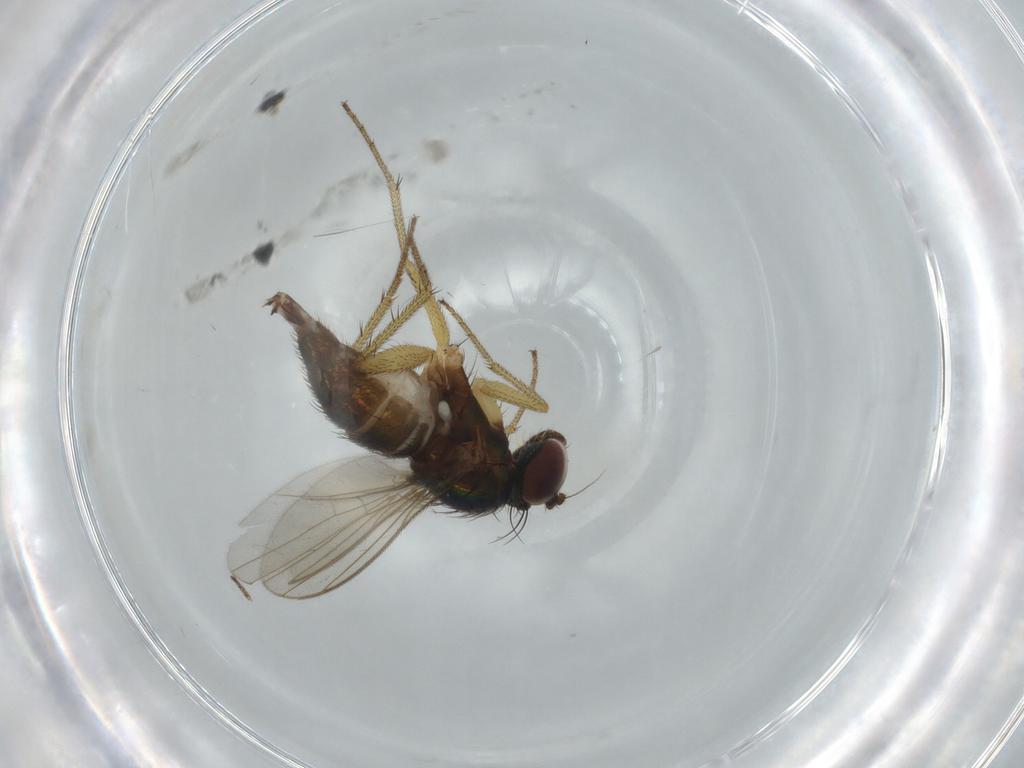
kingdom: Animalia
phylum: Arthropoda
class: Insecta
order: Diptera
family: Dolichopodidae
